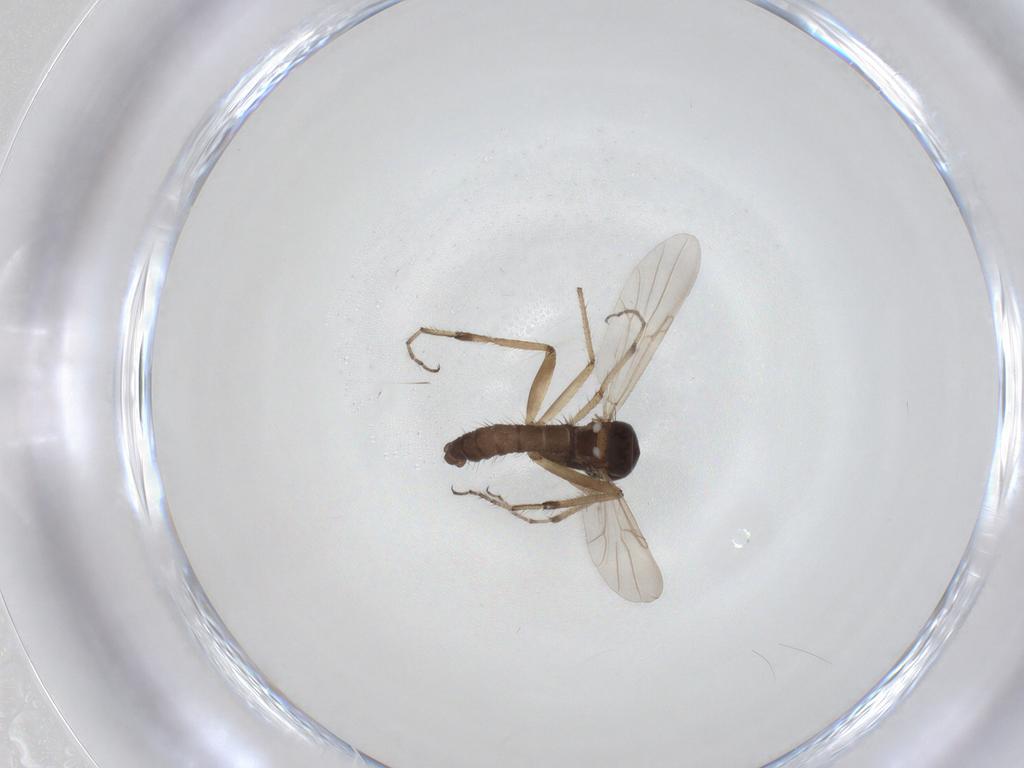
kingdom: Animalia
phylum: Arthropoda
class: Insecta
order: Diptera
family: Ceratopogonidae
